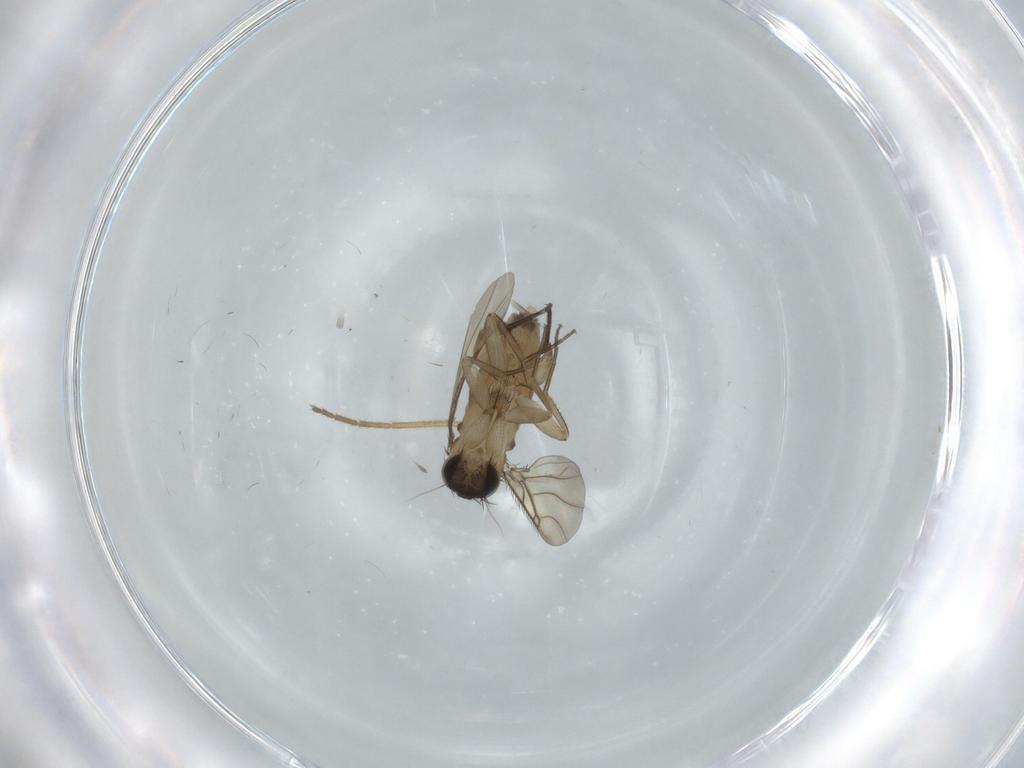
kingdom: Animalia
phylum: Arthropoda
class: Insecta
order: Diptera
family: Phoridae
